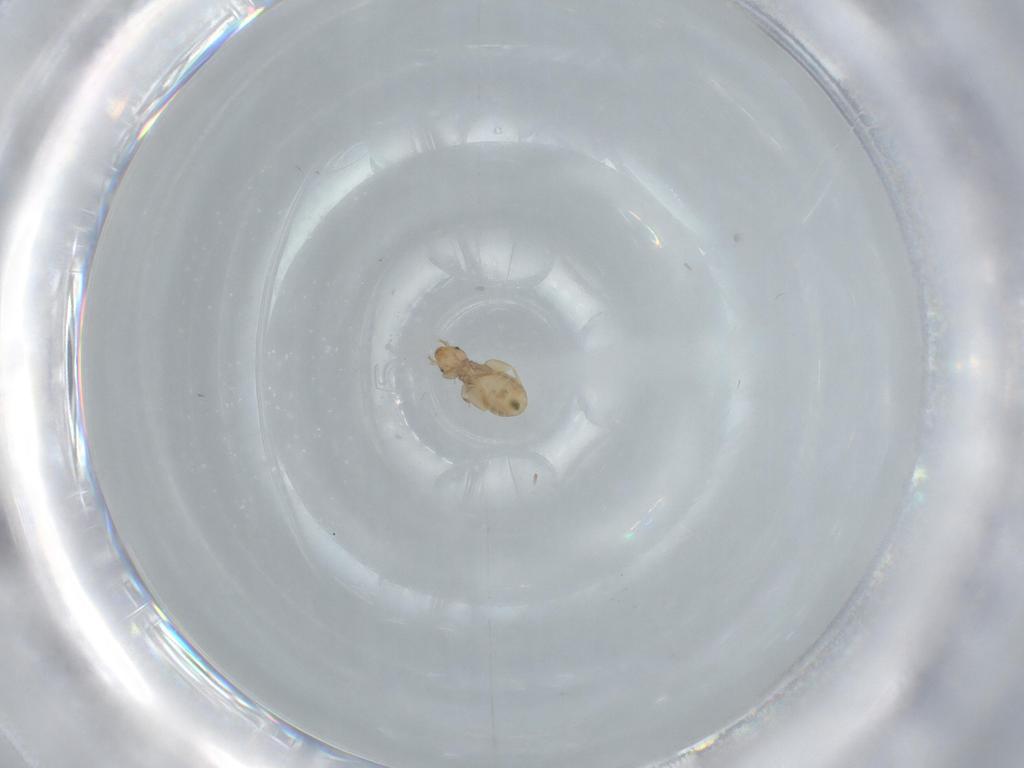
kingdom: Animalia
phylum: Arthropoda
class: Insecta
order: Psocodea
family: Liposcelididae
